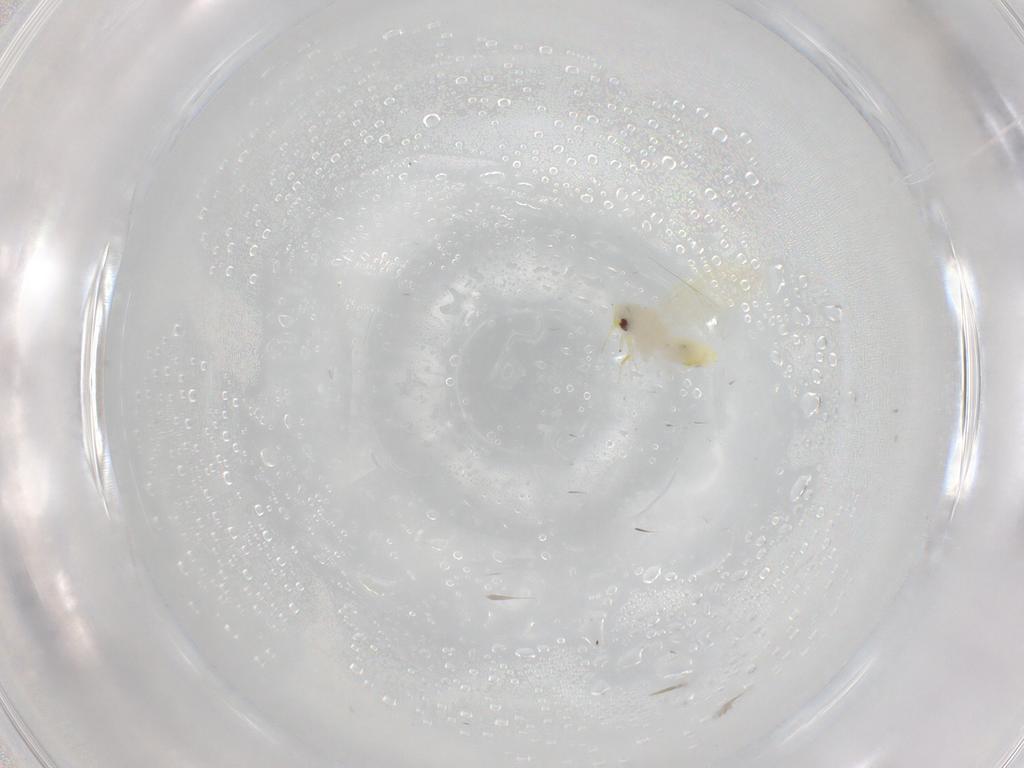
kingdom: Animalia
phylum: Arthropoda
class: Insecta
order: Hemiptera
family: Aleyrodidae
